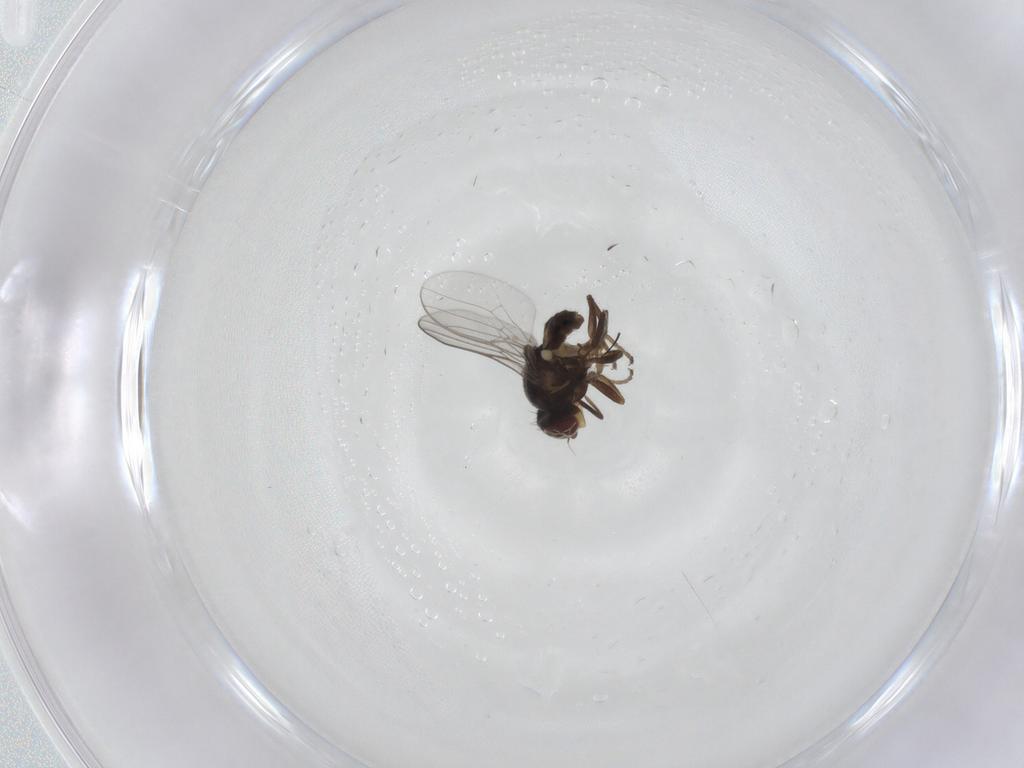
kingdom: Animalia
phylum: Arthropoda
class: Insecta
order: Diptera
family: Chloropidae
